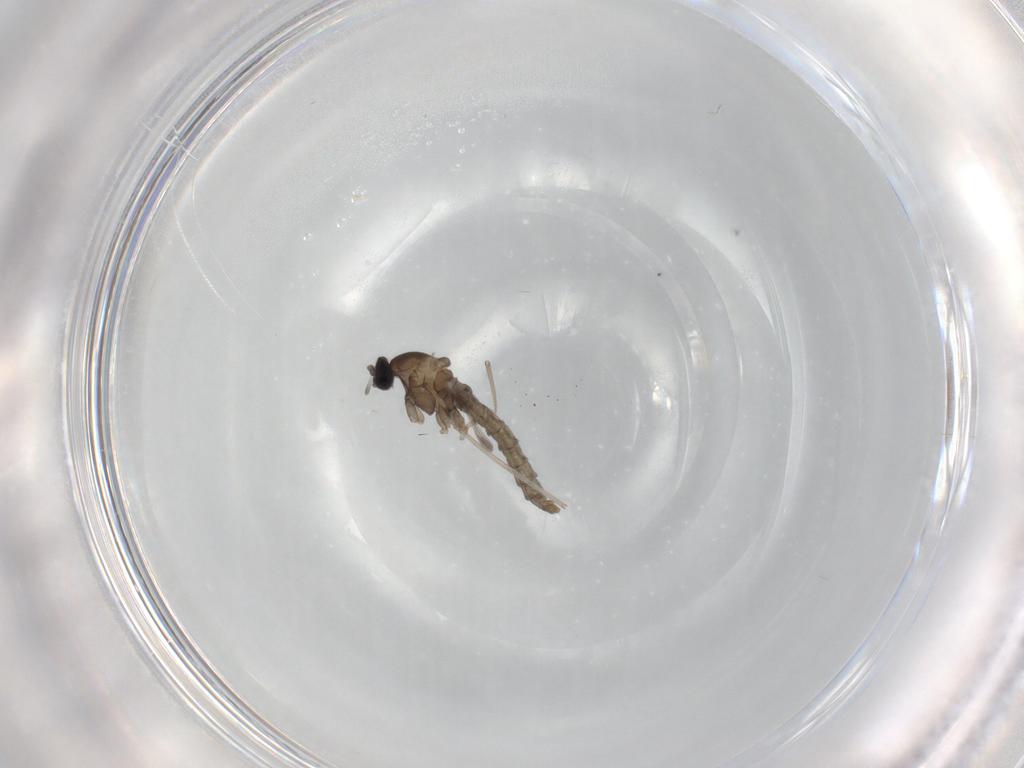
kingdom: Animalia
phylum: Arthropoda
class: Insecta
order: Diptera
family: Cecidomyiidae
